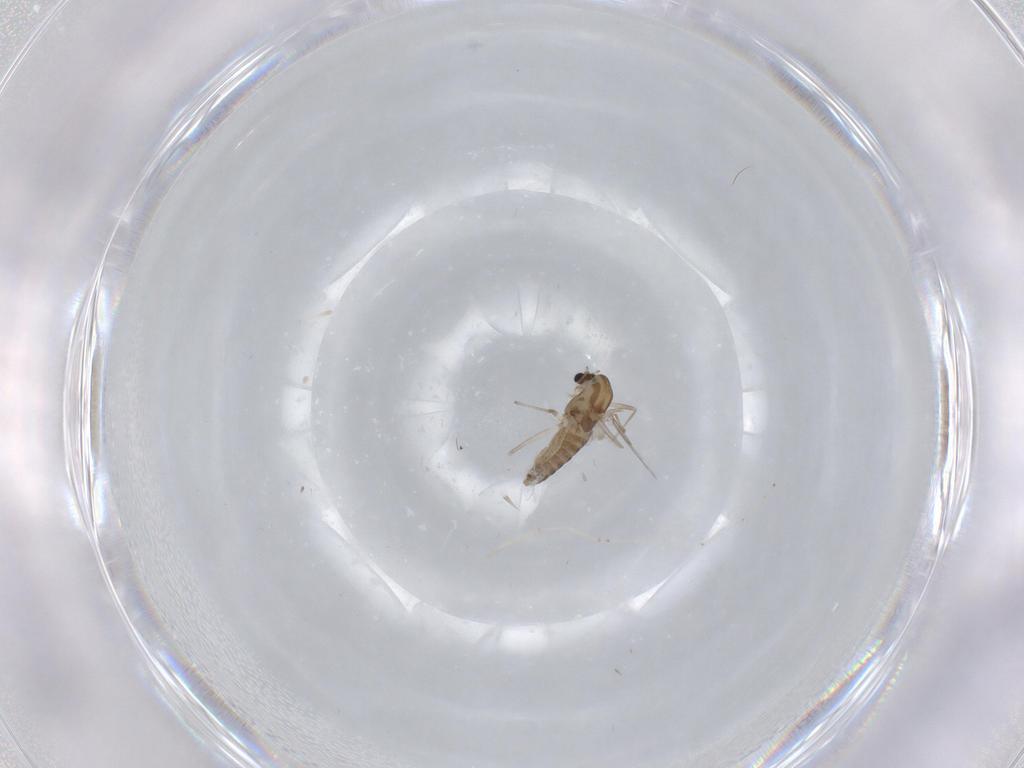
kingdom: Animalia
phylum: Arthropoda
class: Insecta
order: Diptera
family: Chironomidae
